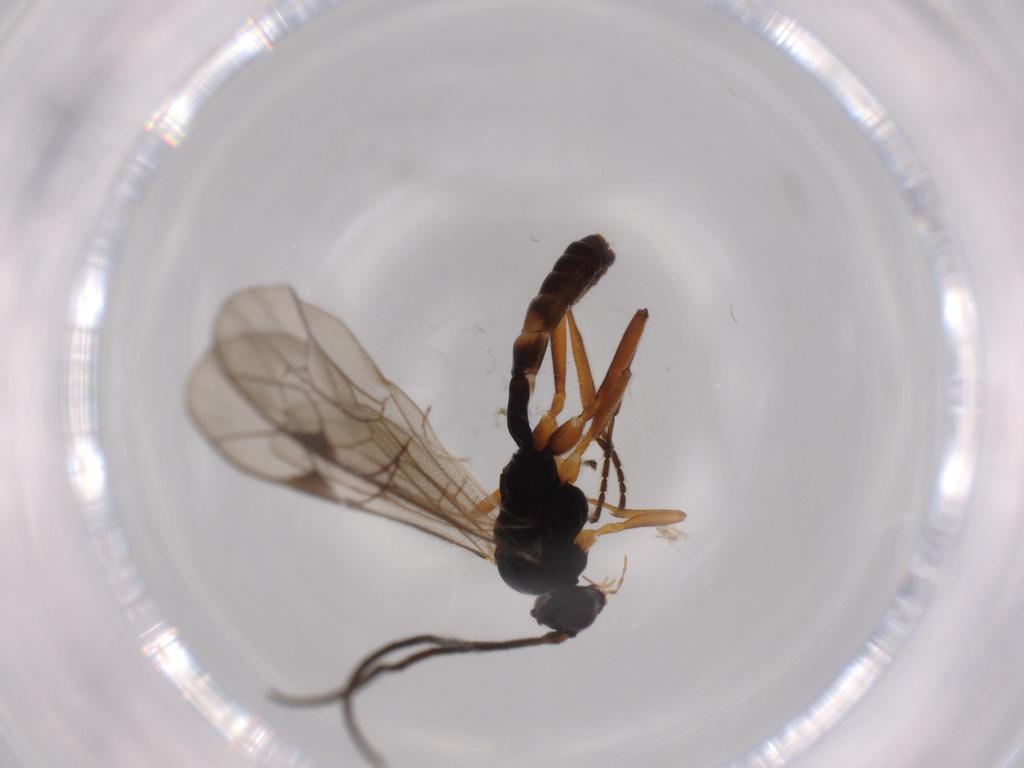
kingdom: Animalia
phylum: Arthropoda
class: Insecta
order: Hymenoptera
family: Ichneumonidae
